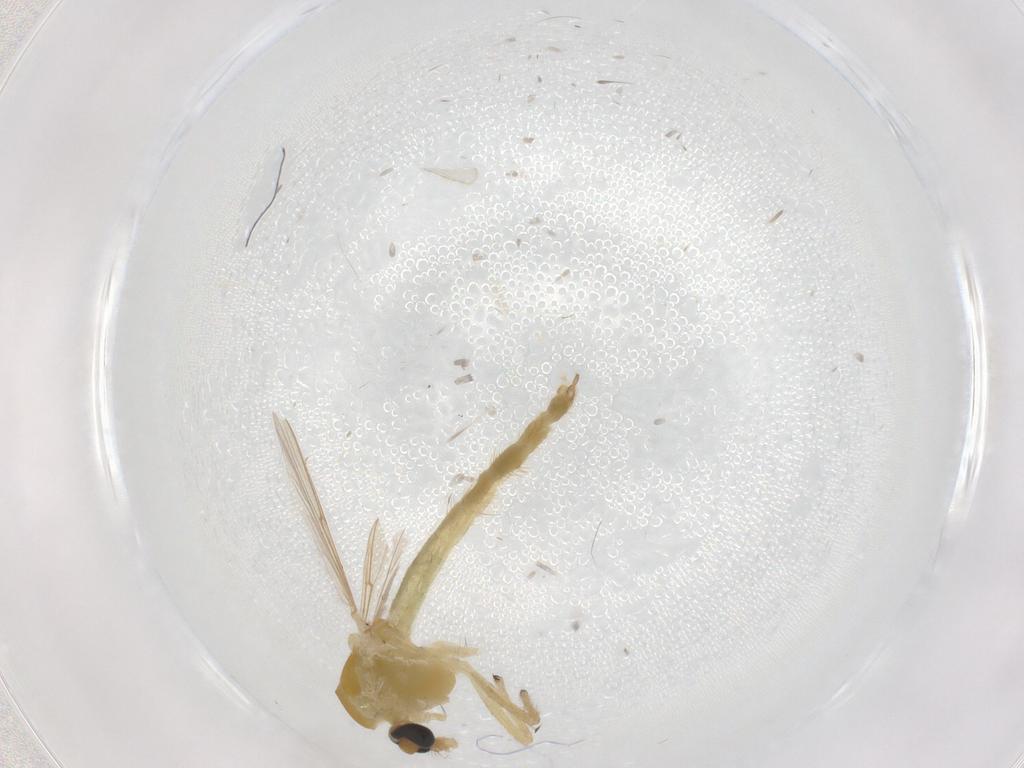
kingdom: Animalia
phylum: Arthropoda
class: Insecta
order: Diptera
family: Chironomidae
